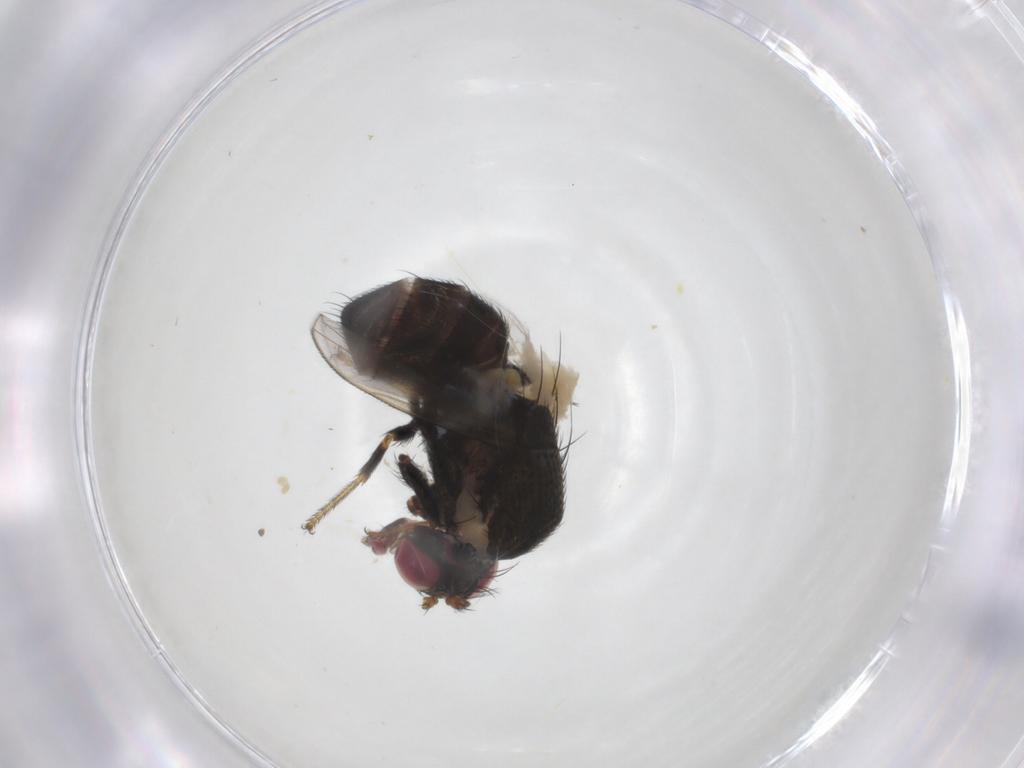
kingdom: Animalia
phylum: Arthropoda
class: Insecta
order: Diptera
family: Ephydridae
